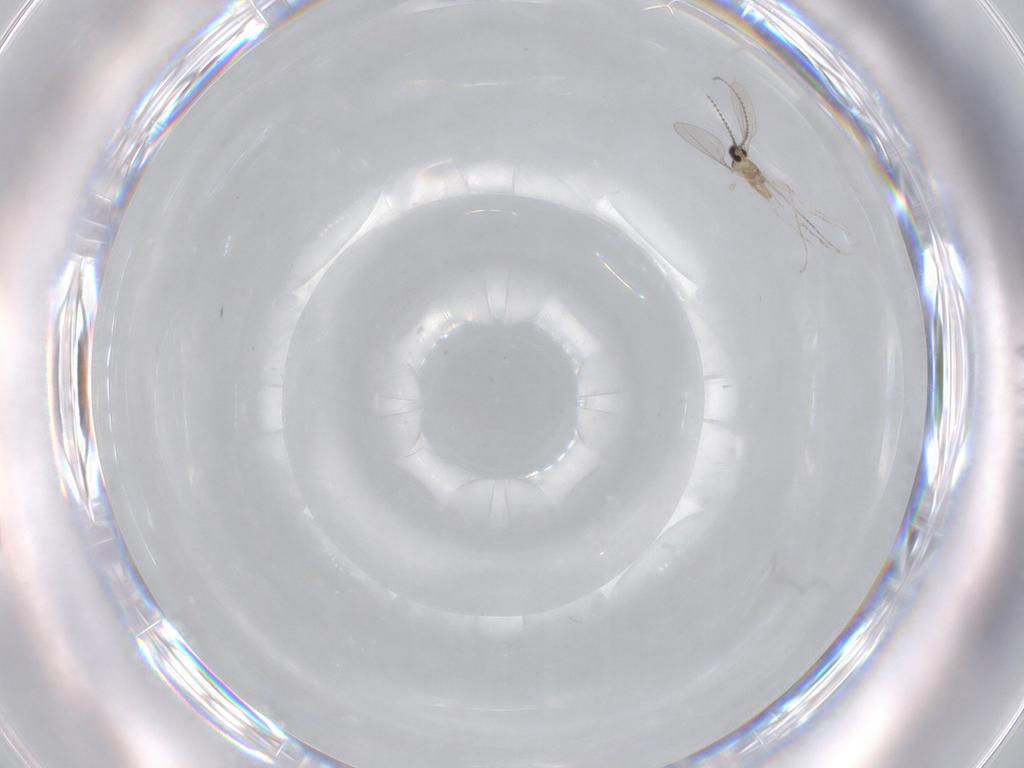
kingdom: Animalia
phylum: Arthropoda
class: Insecta
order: Diptera
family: Cecidomyiidae
